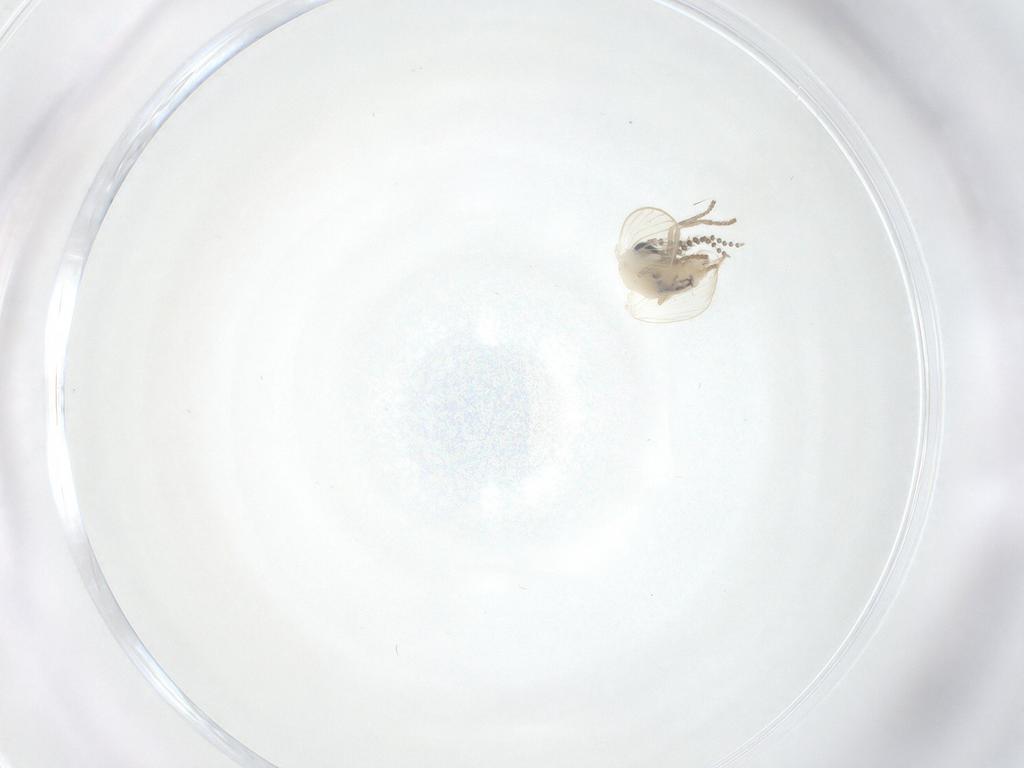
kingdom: Animalia
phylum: Arthropoda
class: Insecta
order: Diptera
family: Psychodidae
